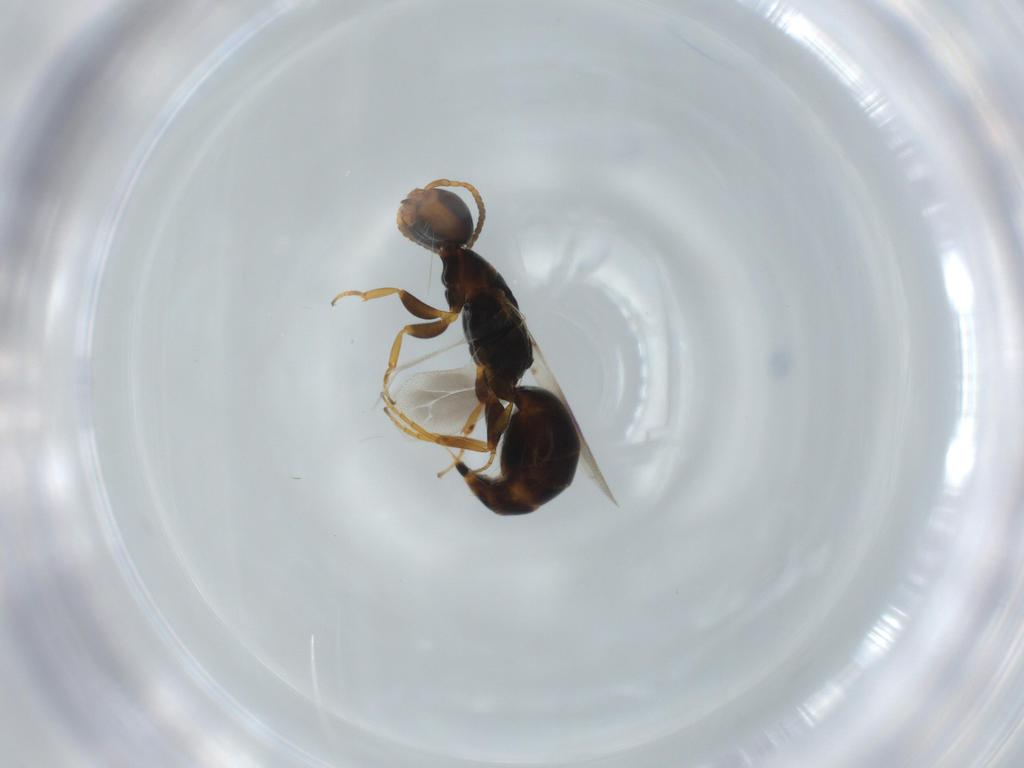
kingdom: Animalia
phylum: Arthropoda
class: Insecta
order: Hymenoptera
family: Bethylidae
